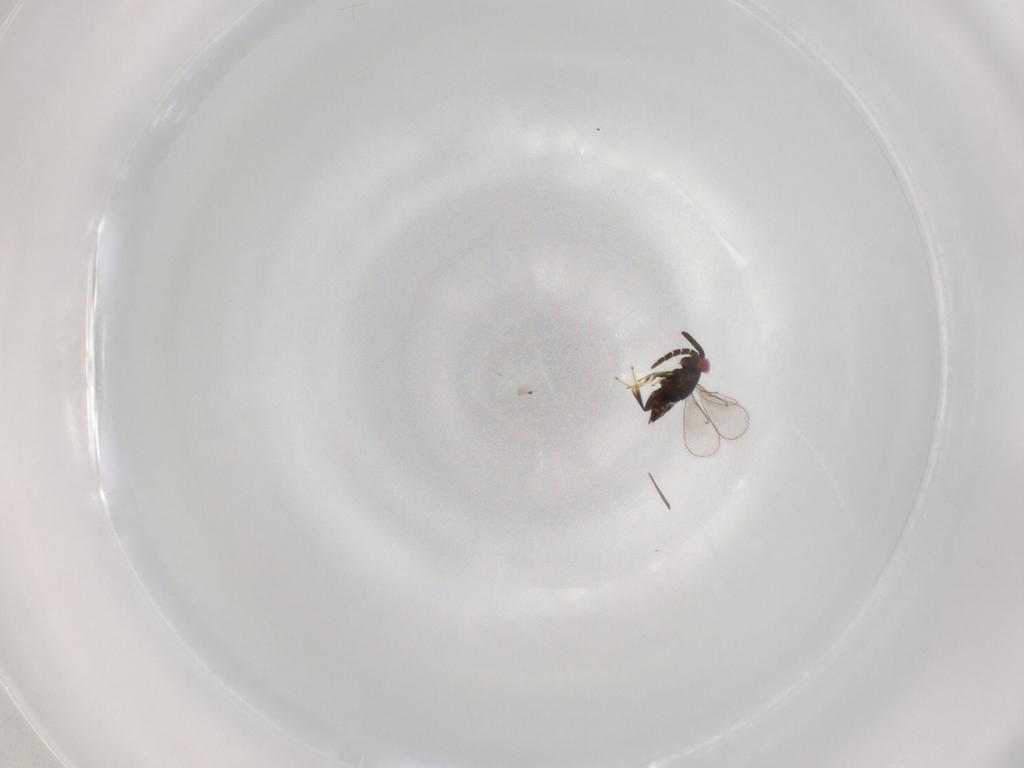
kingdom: Animalia
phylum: Arthropoda
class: Insecta
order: Hymenoptera
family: Aphelinidae
